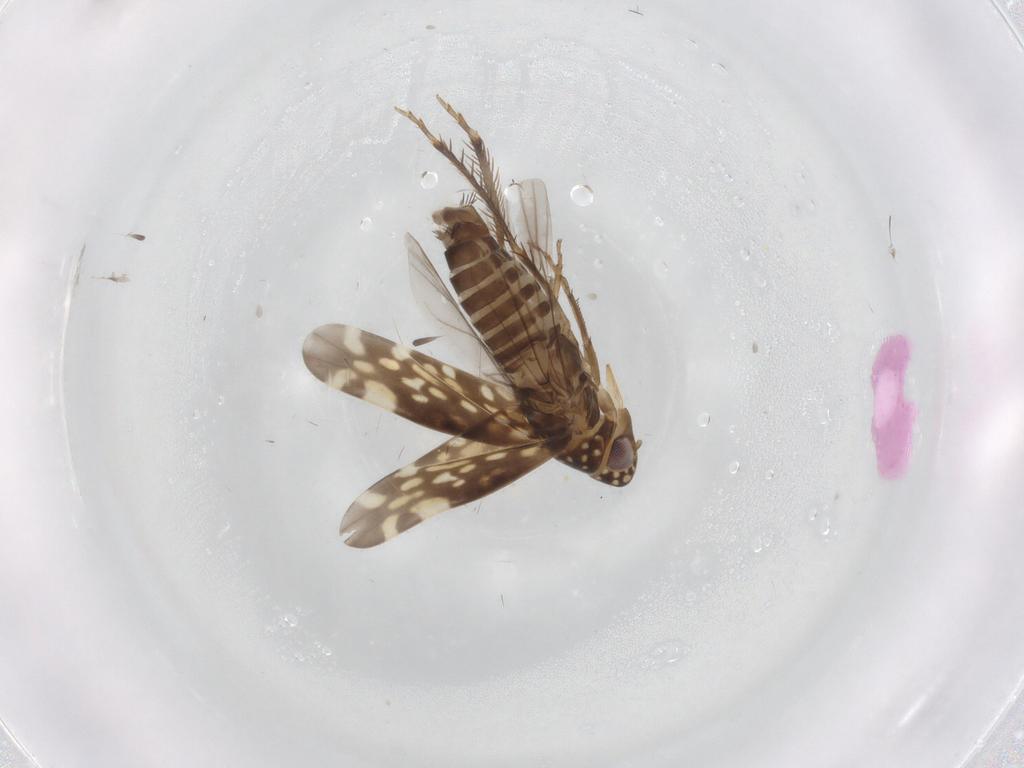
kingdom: Animalia
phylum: Arthropoda
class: Insecta
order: Hemiptera
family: Cicadellidae
